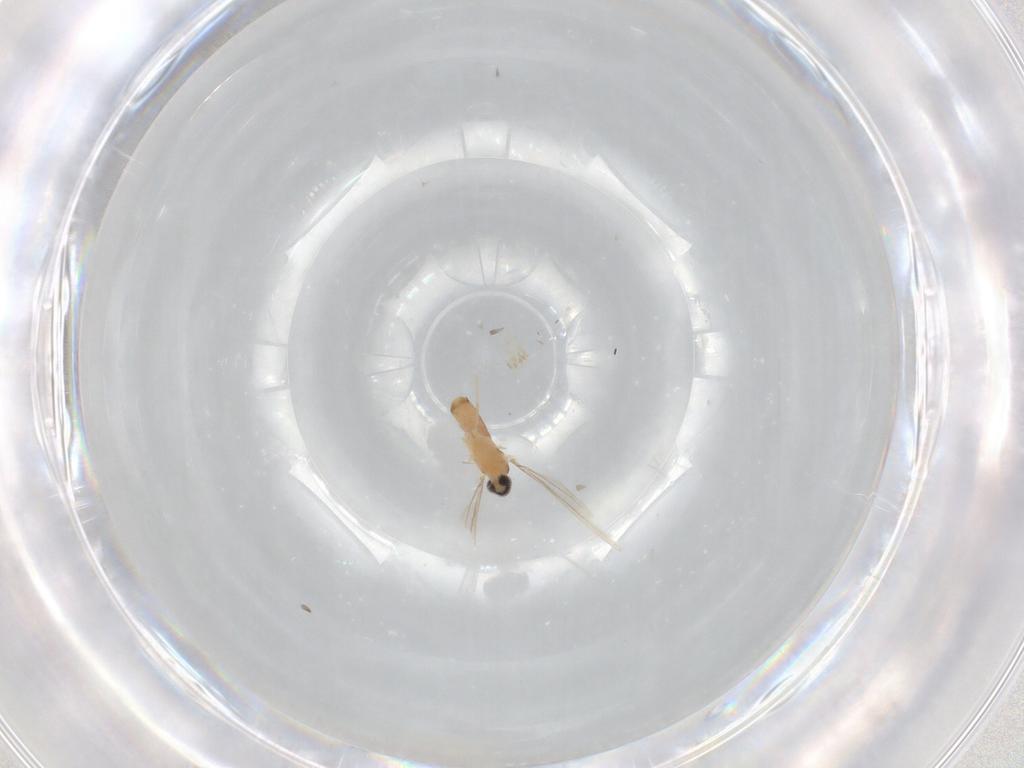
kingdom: Animalia
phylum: Arthropoda
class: Insecta
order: Diptera
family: Cecidomyiidae
